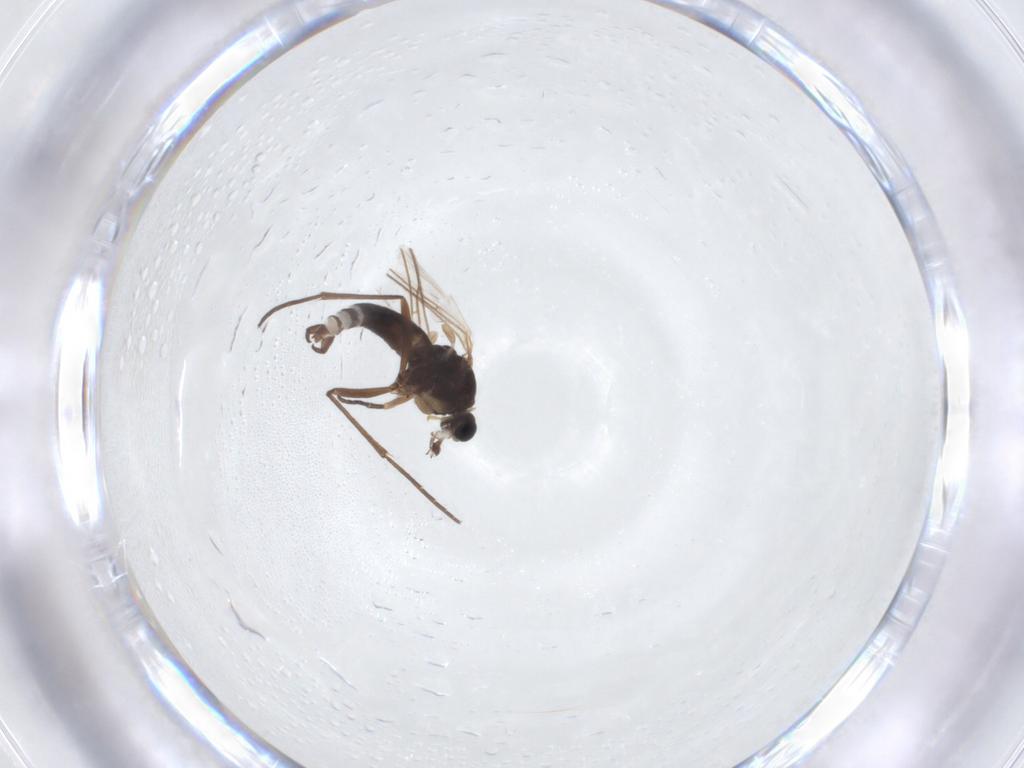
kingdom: Animalia
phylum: Arthropoda
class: Insecta
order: Diptera
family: Sciaridae
